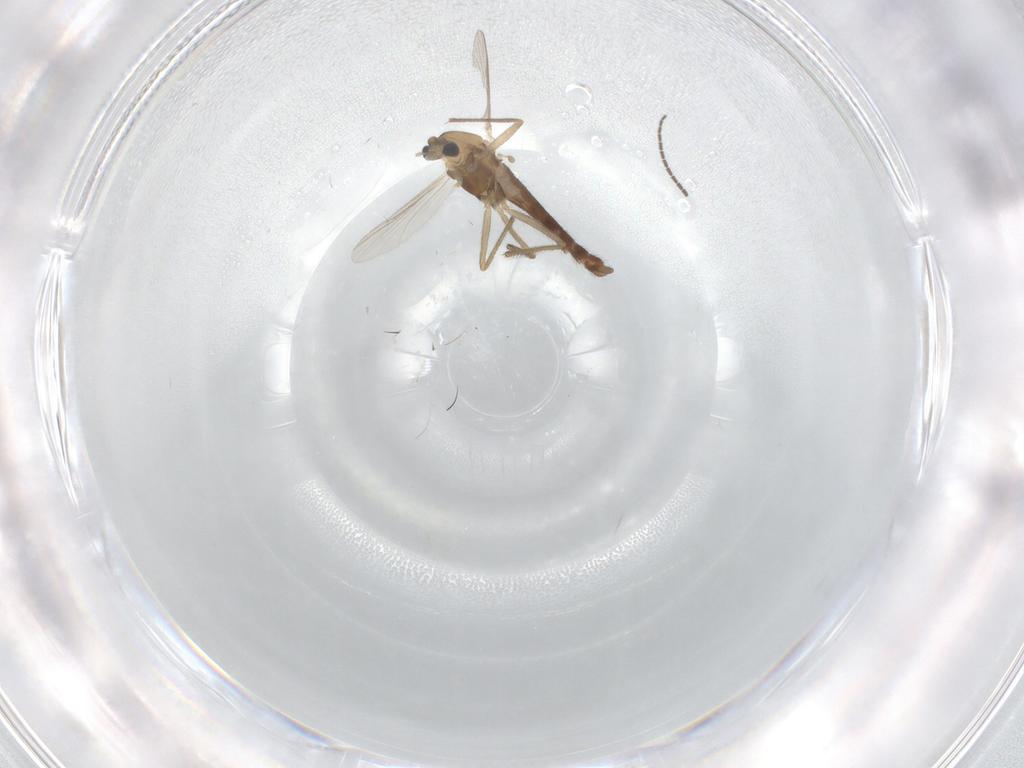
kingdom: Animalia
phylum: Arthropoda
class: Insecta
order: Diptera
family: Chironomidae
